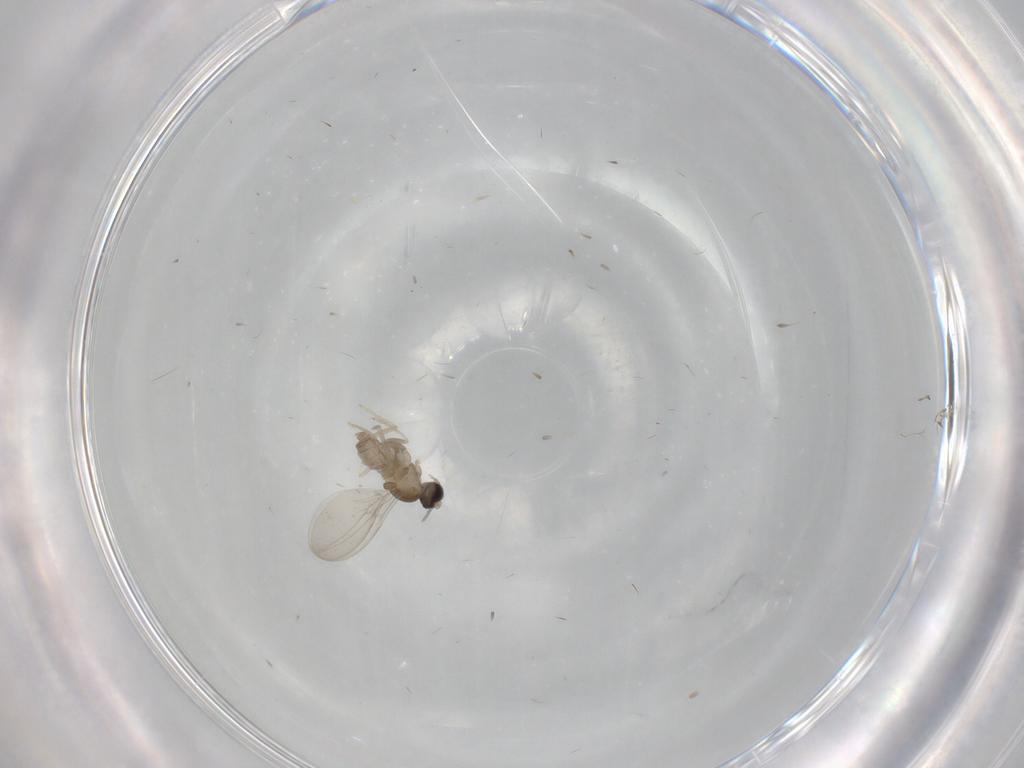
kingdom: Animalia
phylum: Arthropoda
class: Insecta
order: Diptera
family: Cecidomyiidae
